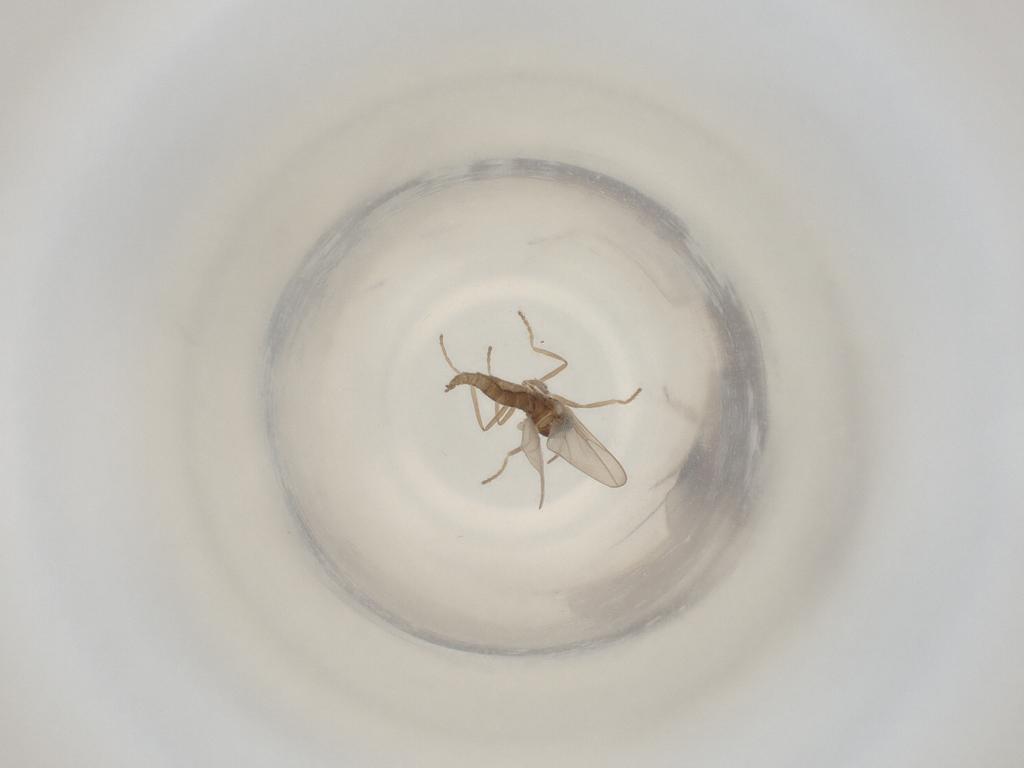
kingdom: Animalia
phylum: Arthropoda
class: Insecta
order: Diptera
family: Cecidomyiidae
